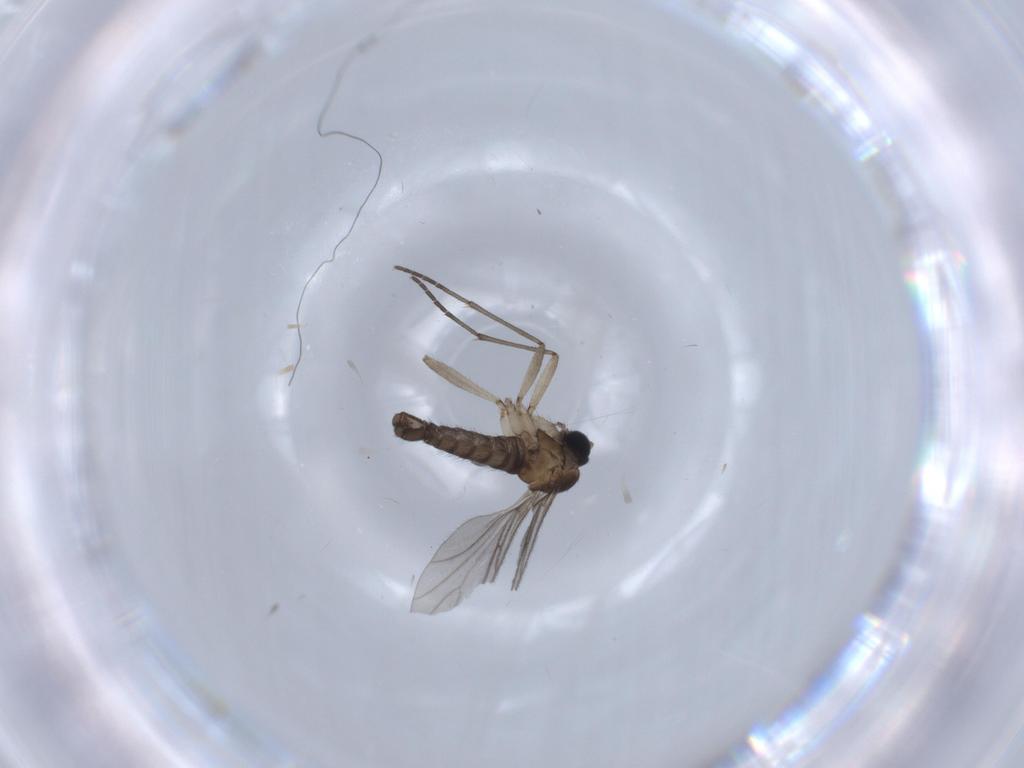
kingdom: Animalia
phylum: Arthropoda
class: Insecta
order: Diptera
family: Sciaridae
